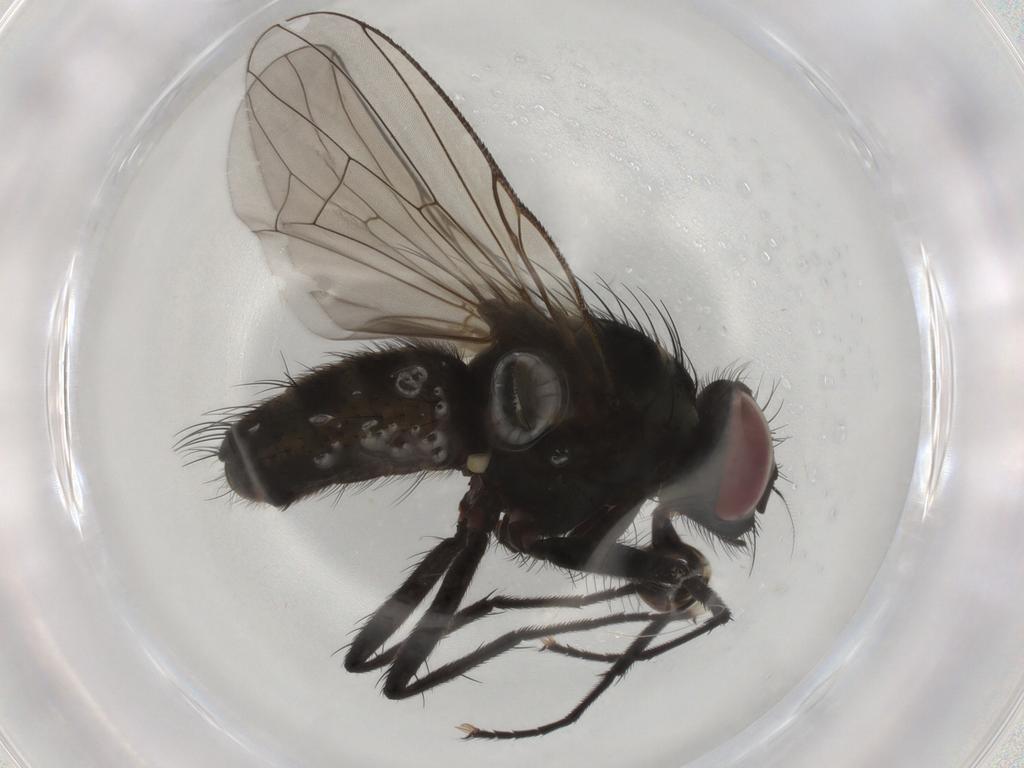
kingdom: Animalia
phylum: Arthropoda
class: Insecta
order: Diptera
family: Muscidae
